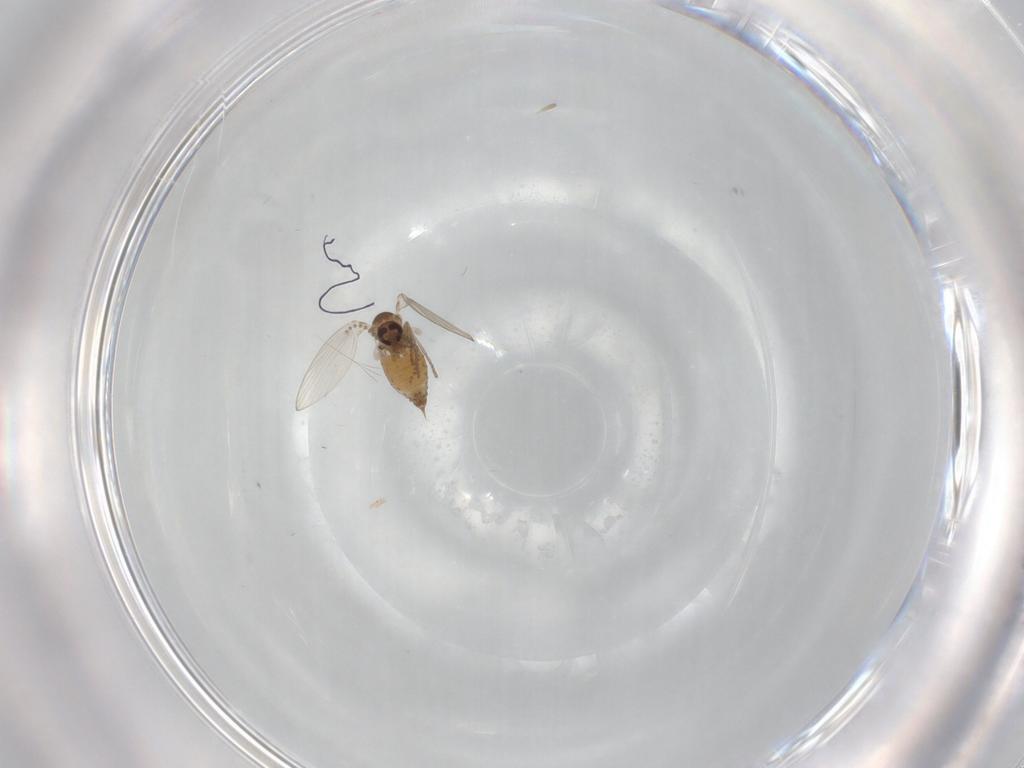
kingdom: Animalia
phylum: Arthropoda
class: Insecta
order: Diptera
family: Psychodidae
